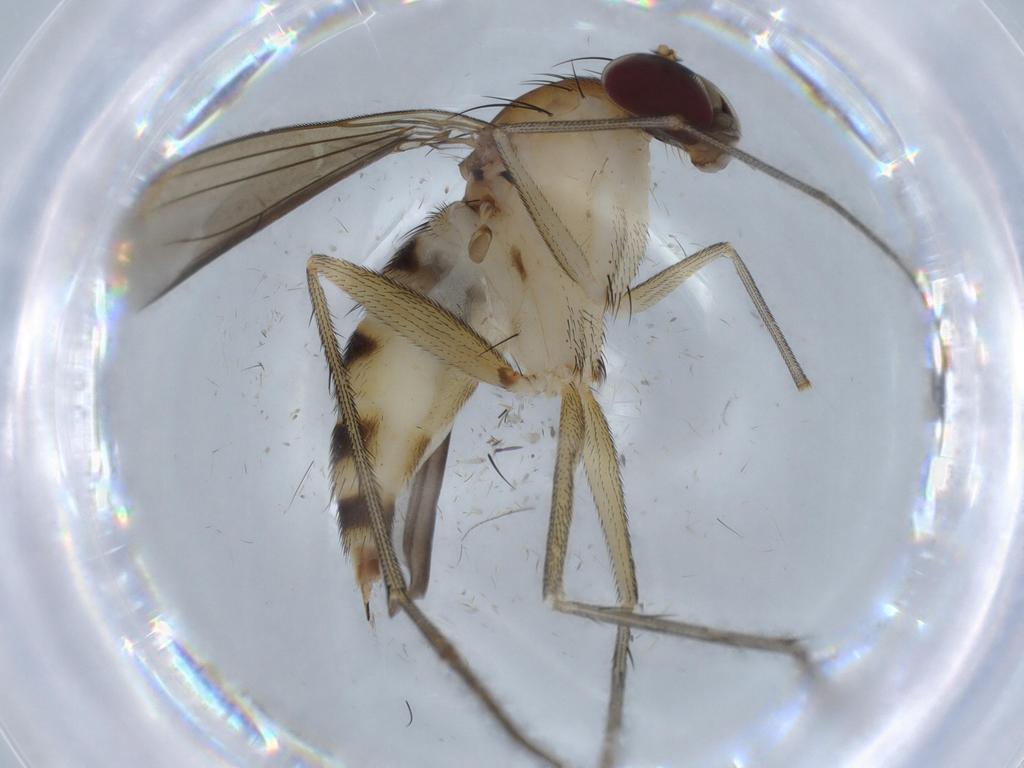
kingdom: Animalia
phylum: Arthropoda
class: Insecta
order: Diptera
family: Dolichopodidae
